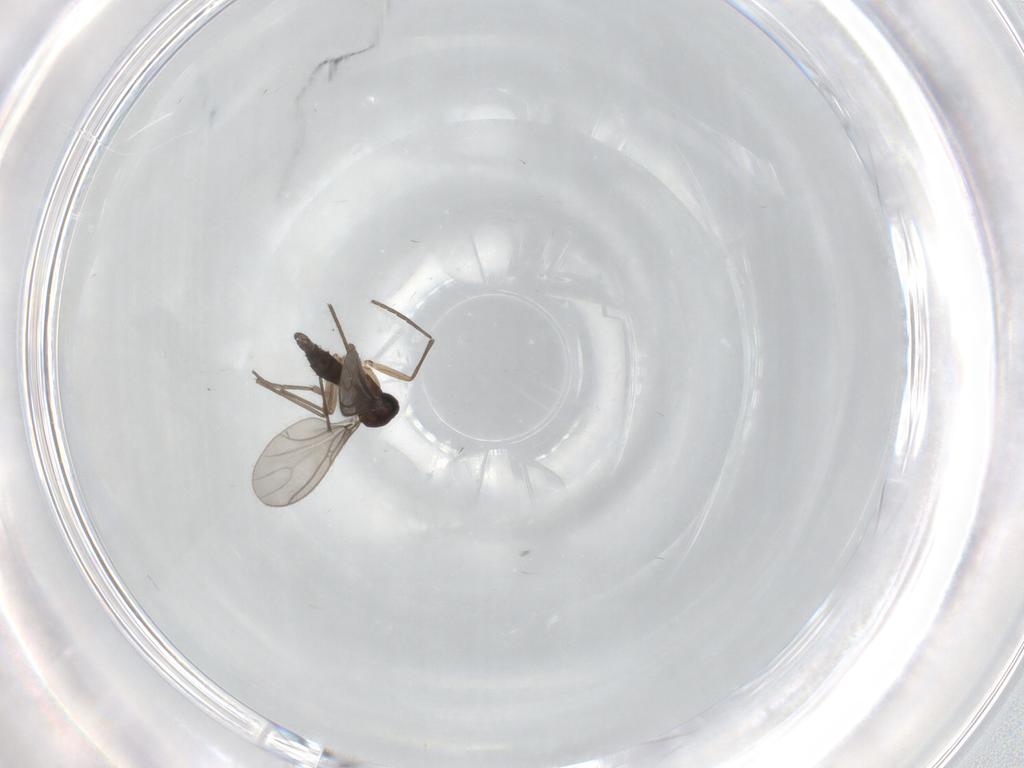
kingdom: Animalia
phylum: Arthropoda
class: Insecta
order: Diptera
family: Sciaridae
